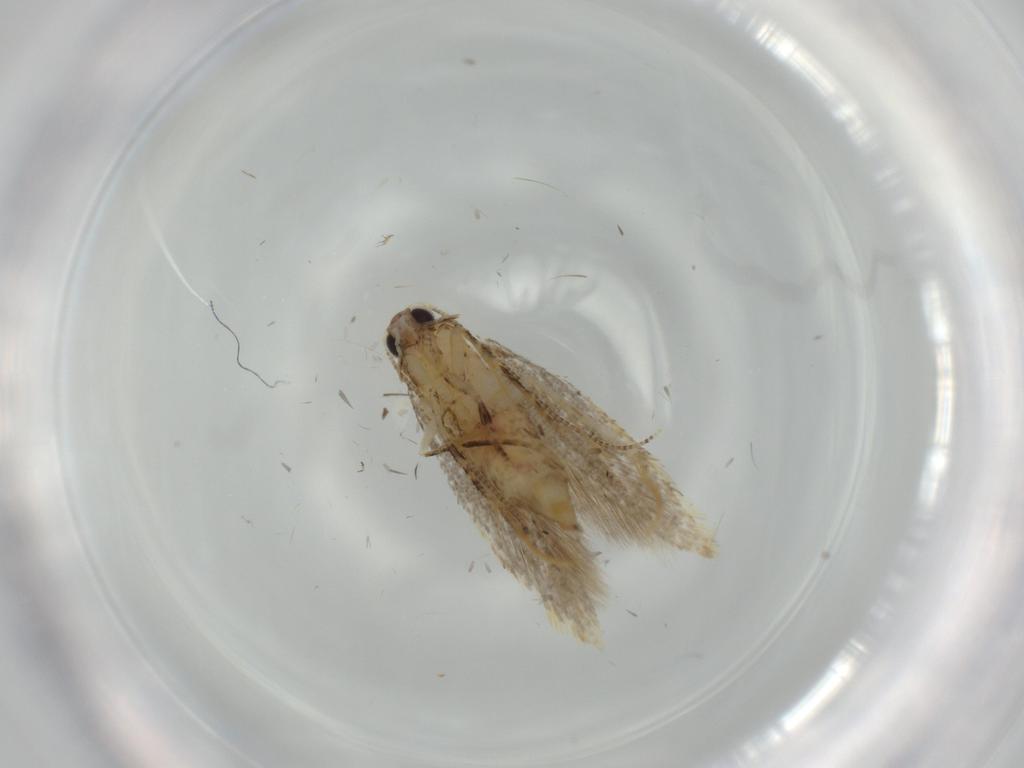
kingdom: Animalia
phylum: Arthropoda
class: Insecta
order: Lepidoptera
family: Tineidae
